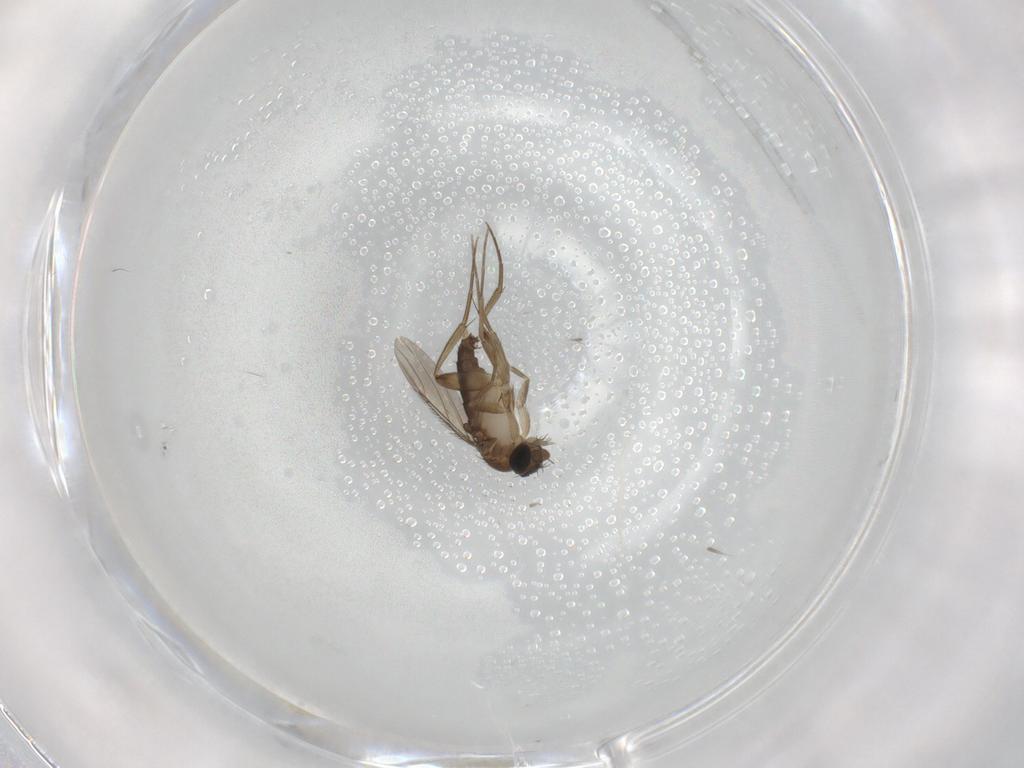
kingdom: Animalia
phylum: Arthropoda
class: Insecta
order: Diptera
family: Phoridae
